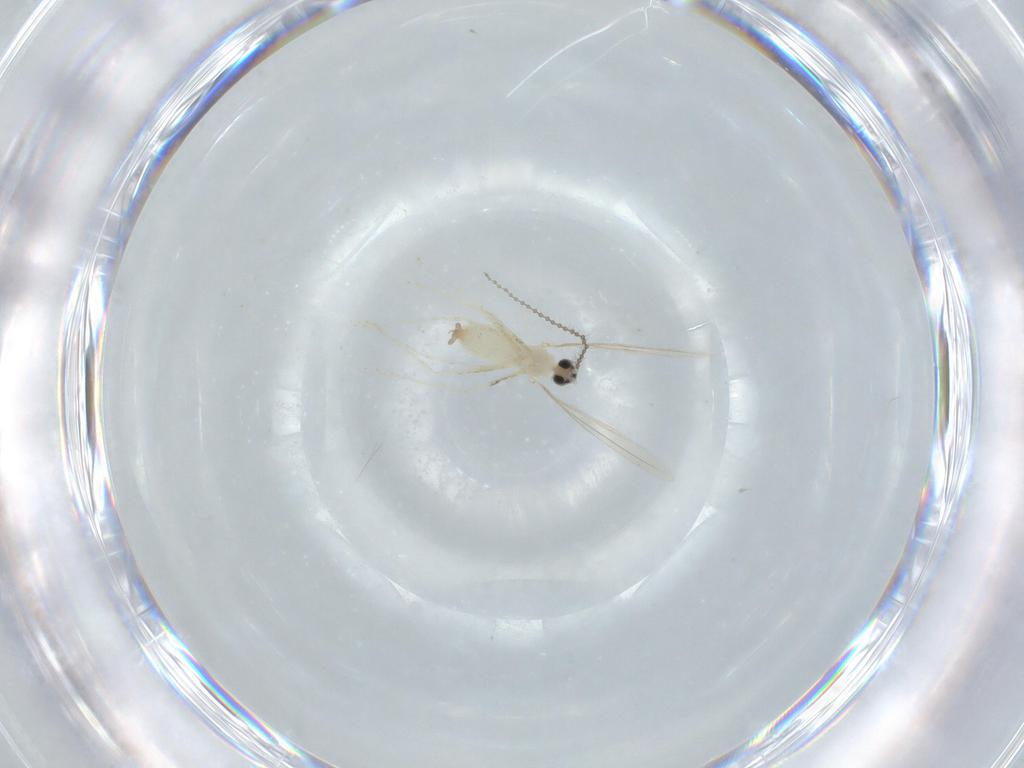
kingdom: Animalia
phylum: Arthropoda
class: Insecta
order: Diptera
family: Cecidomyiidae
